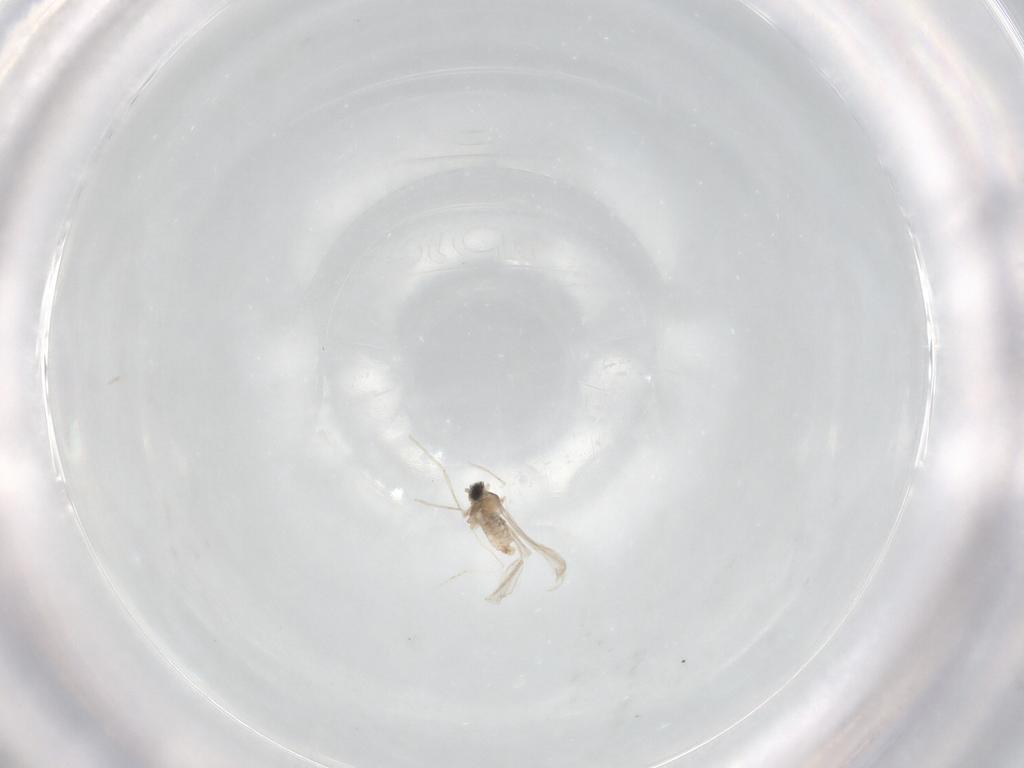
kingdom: Animalia
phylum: Arthropoda
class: Insecta
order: Diptera
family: Cecidomyiidae
